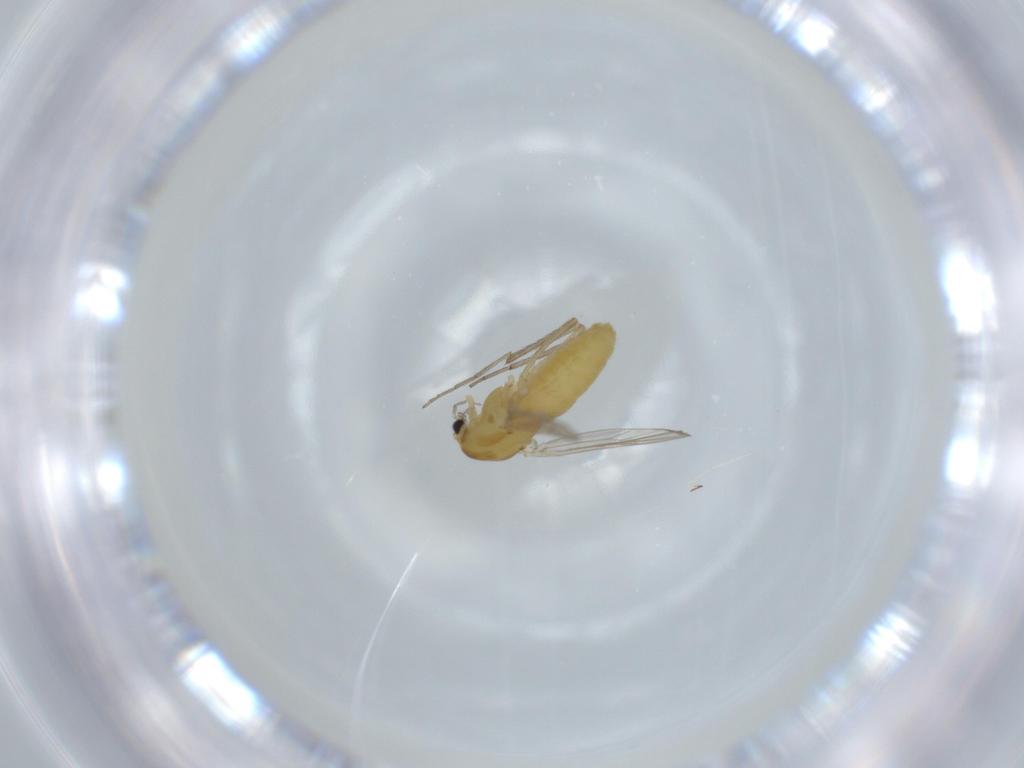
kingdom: Animalia
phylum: Arthropoda
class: Insecta
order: Diptera
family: Chironomidae
